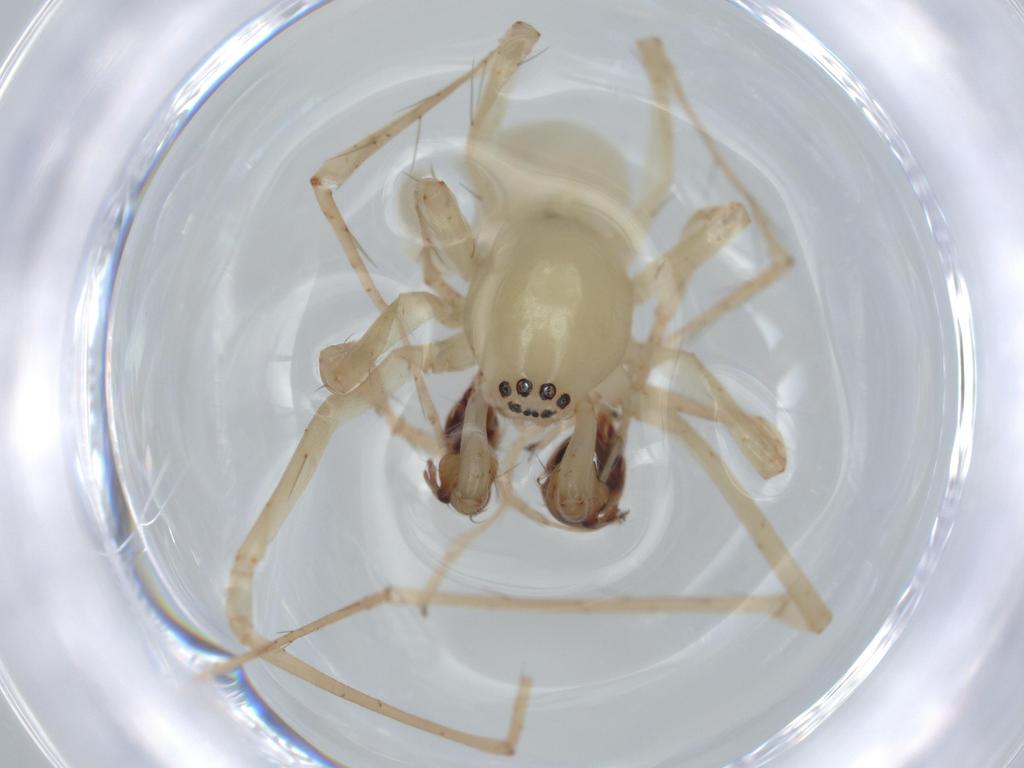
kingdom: Animalia
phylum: Arthropoda
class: Arachnida
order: Araneae
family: Anyphaenidae
